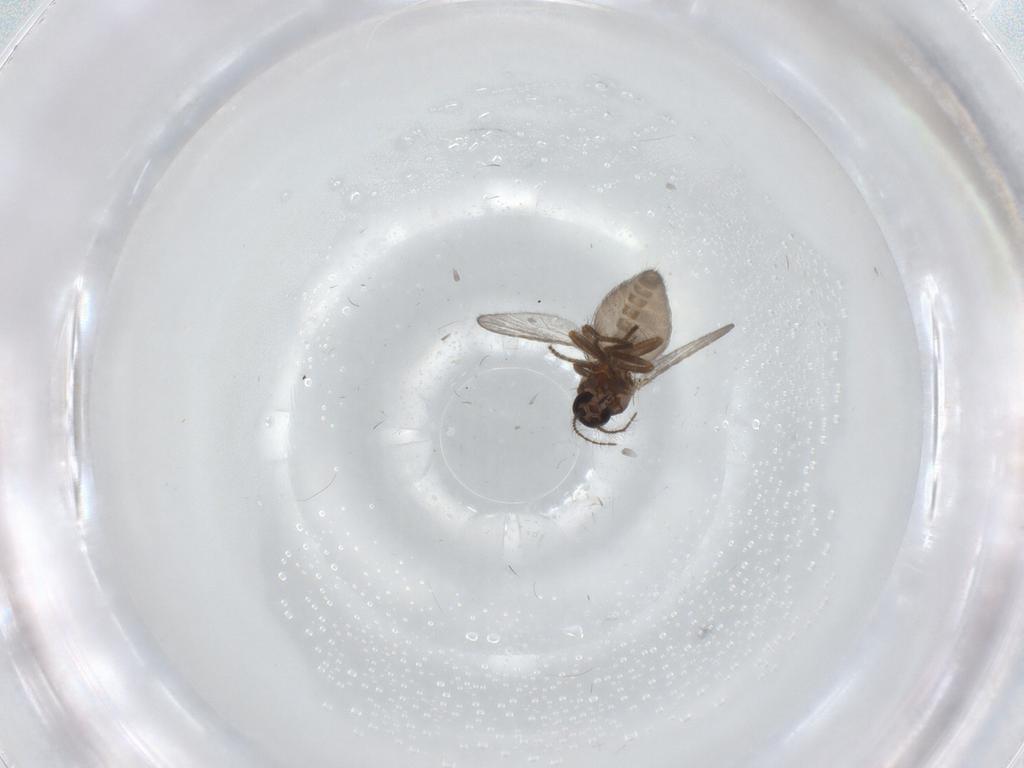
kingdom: Animalia
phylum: Arthropoda
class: Insecta
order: Diptera
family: Ceratopogonidae
